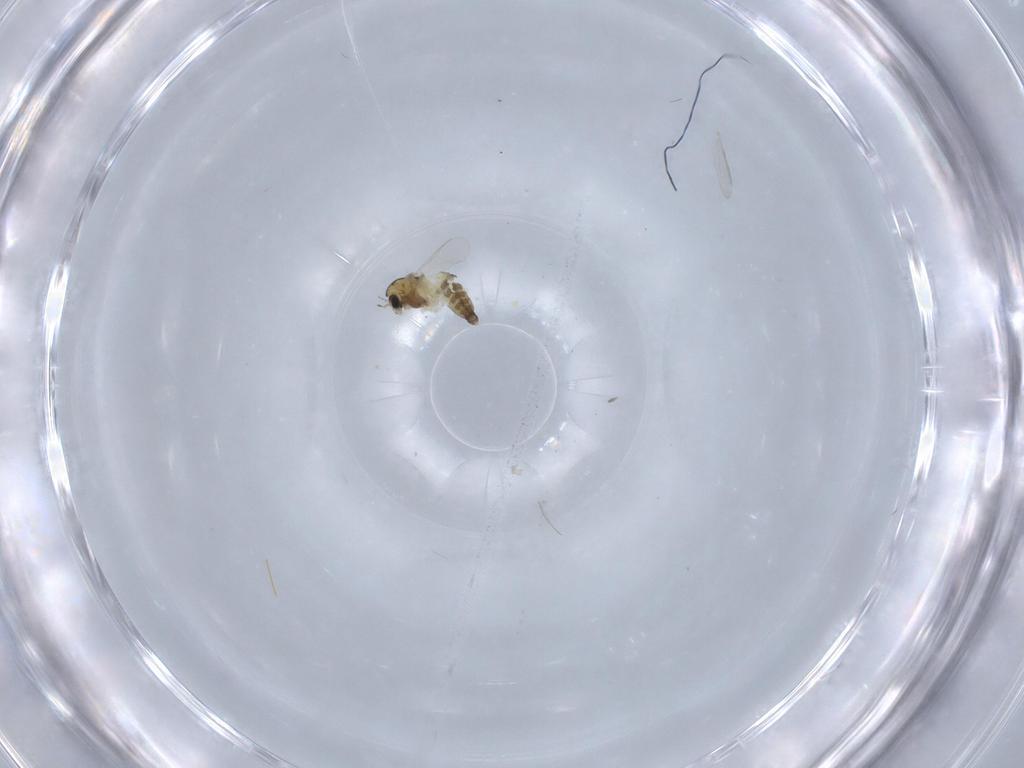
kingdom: Animalia
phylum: Arthropoda
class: Insecta
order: Diptera
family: Chironomidae
